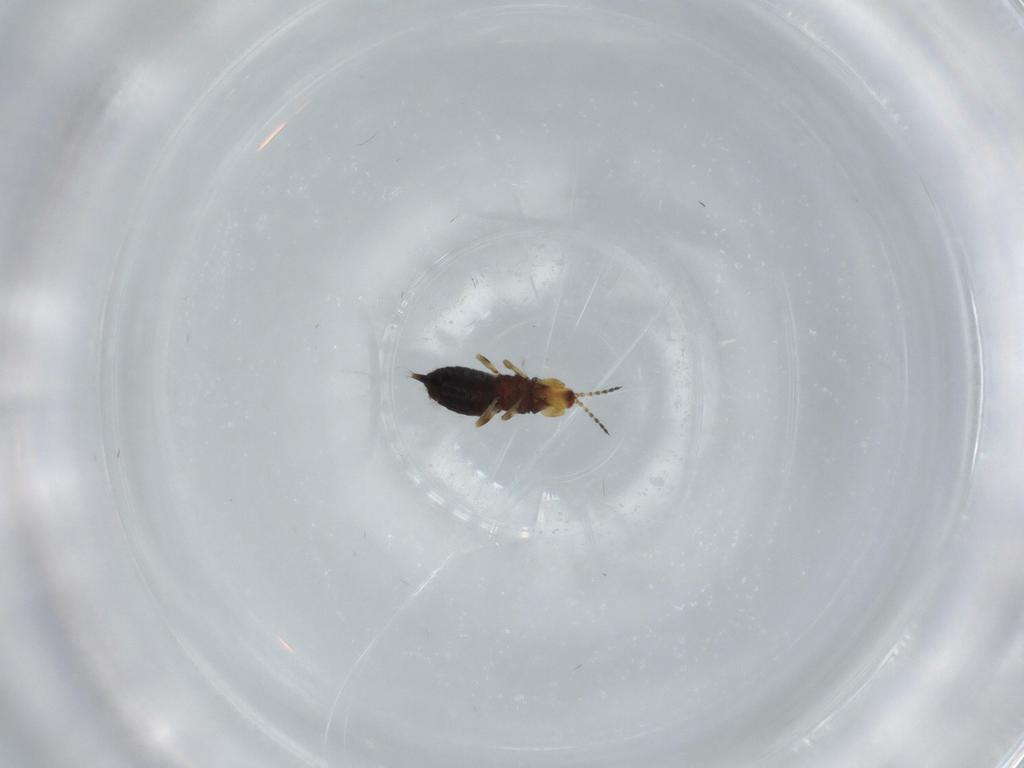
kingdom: Animalia
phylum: Arthropoda
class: Insecta
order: Thysanoptera
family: Phlaeothripidae
